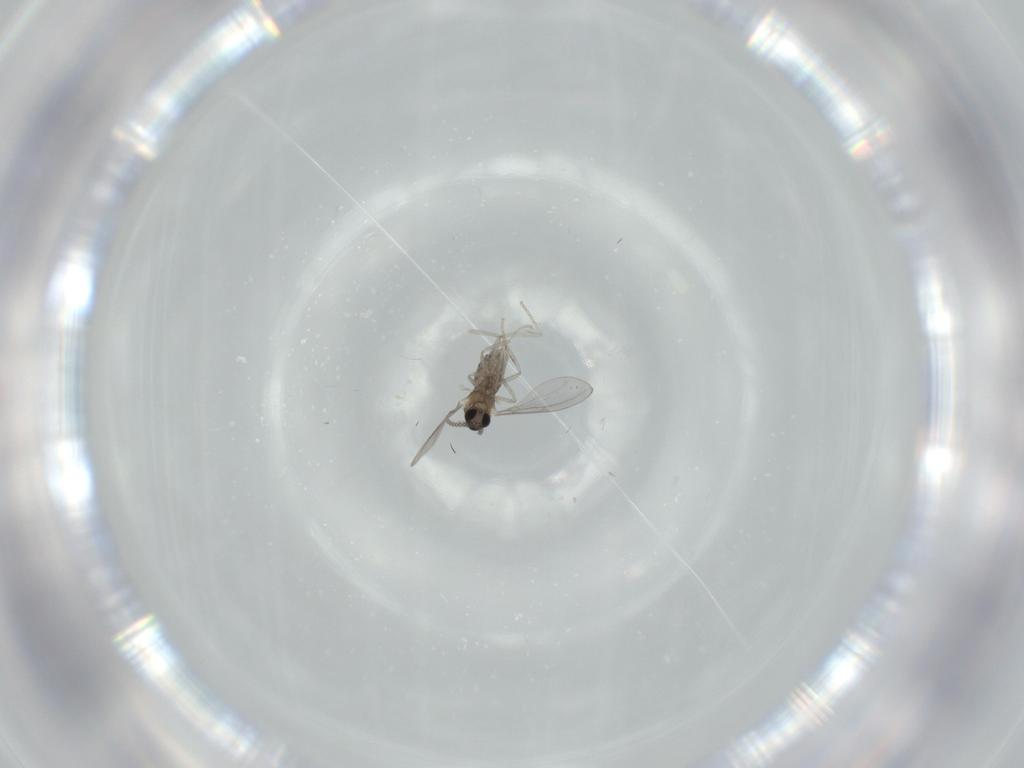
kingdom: Animalia
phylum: Arthropoda
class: Insecta
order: Diptera
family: Cecidomyiidae
